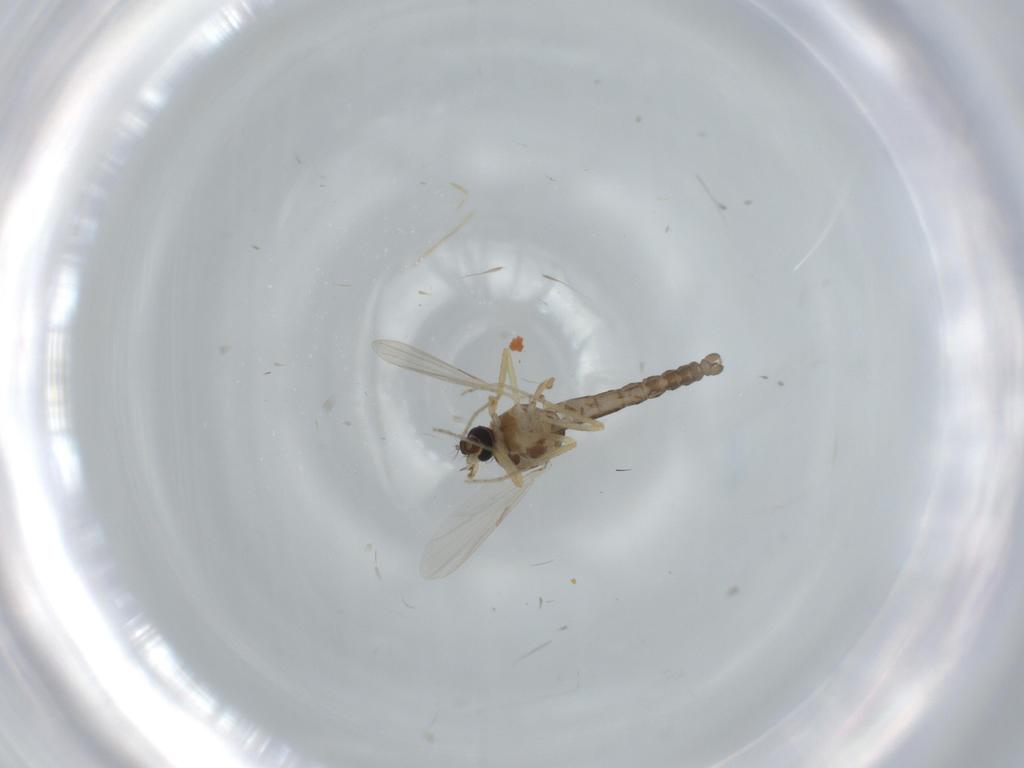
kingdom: Animalia
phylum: Arthropoda
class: Insecta
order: Diptera
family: Ceratopogonidae
